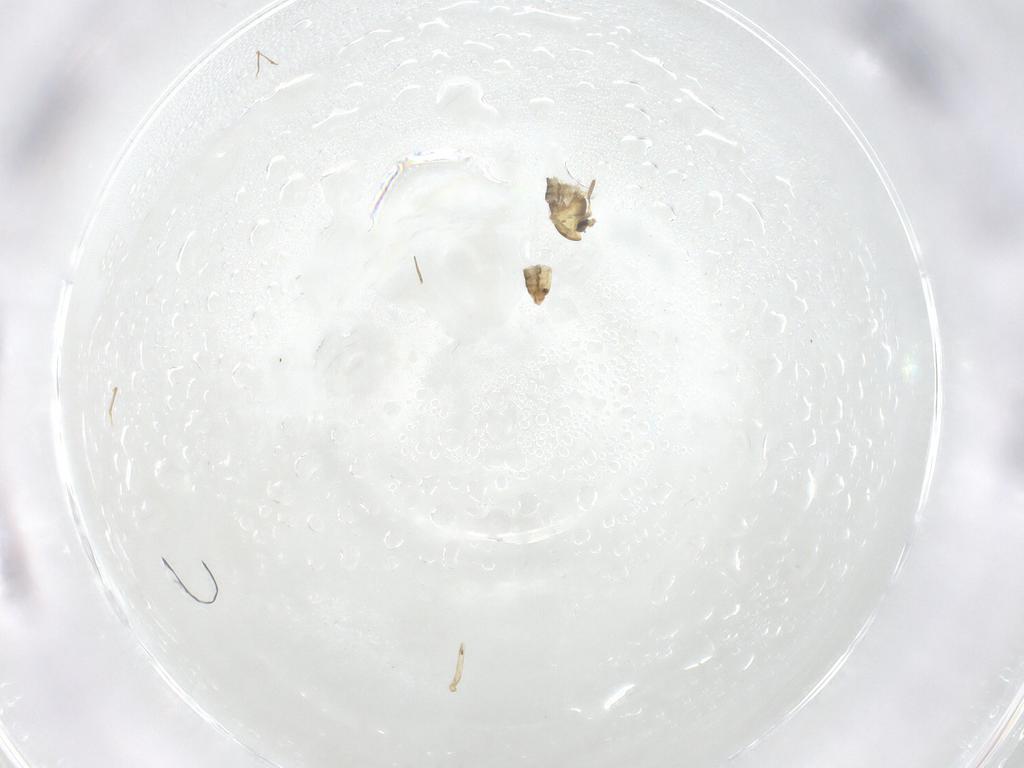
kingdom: Animalia
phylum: Arthropoda
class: Insecta
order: Diptera
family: Chironomidae
